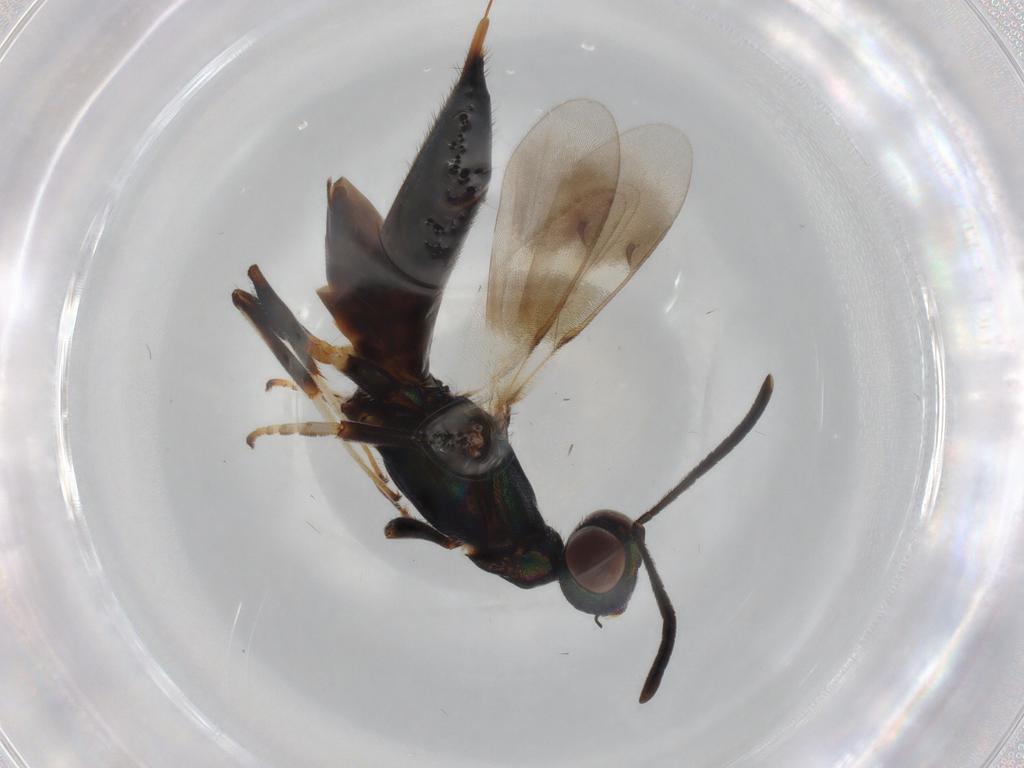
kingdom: Animalia
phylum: Arthropoda
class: Insecta
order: Hymenoptera
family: Eupelmidae
